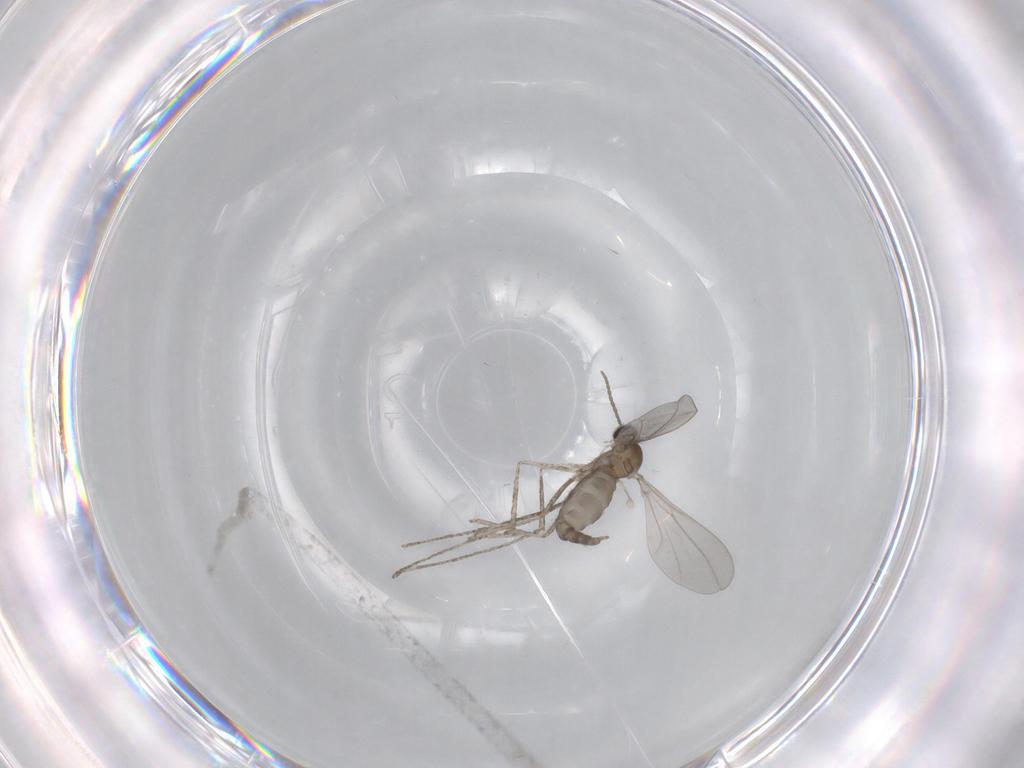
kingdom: Animalia
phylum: Arthropoda
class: Insecta
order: Diptera
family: Cecidomyiidae
